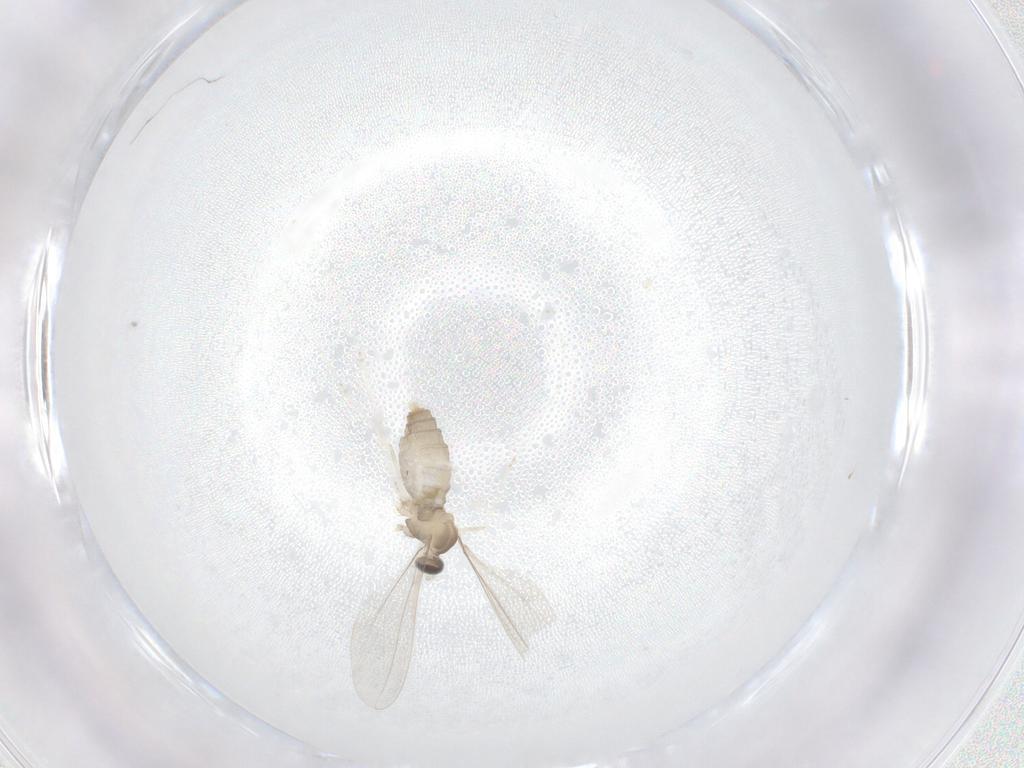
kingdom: Animalia
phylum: Arthropoda
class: Insecta
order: Diptera
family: Cecidomyiidae
